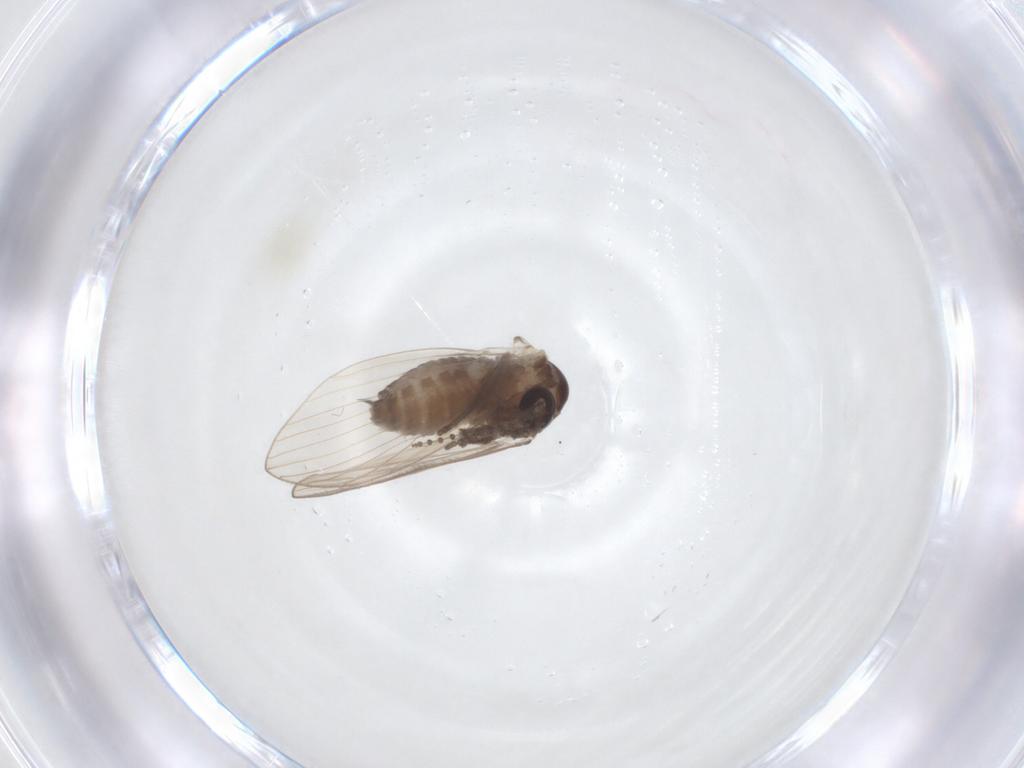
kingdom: Animalia
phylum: Arthropoda
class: Insecta
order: Diptera
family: Psychodidae
